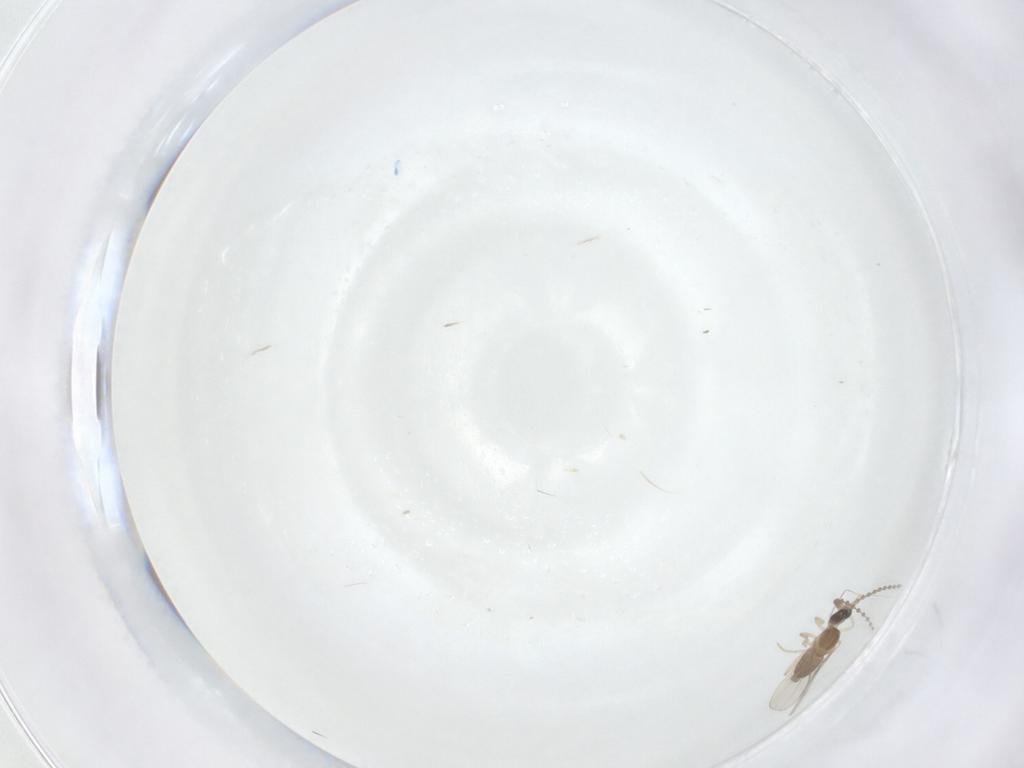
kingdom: Animalia
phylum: Arthropoda
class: Insecta
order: Diptera
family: Cecidomyiidae
